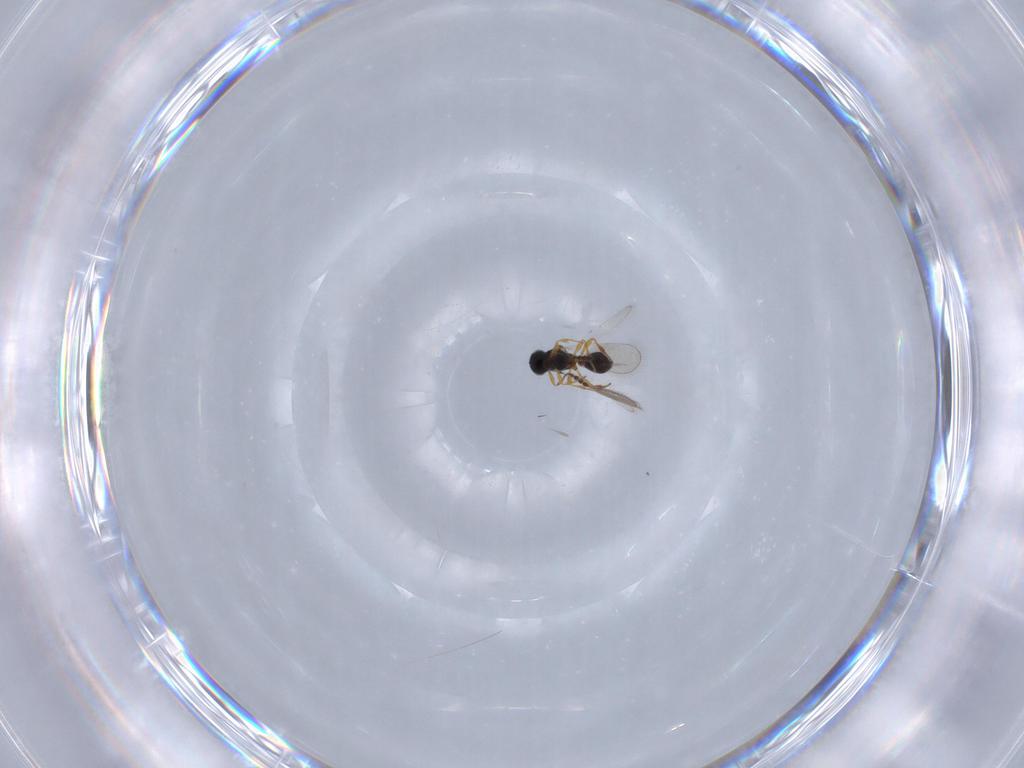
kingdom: Animalia
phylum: Arthropoda
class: Insecta
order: Hymenoptera
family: Platygastridae
